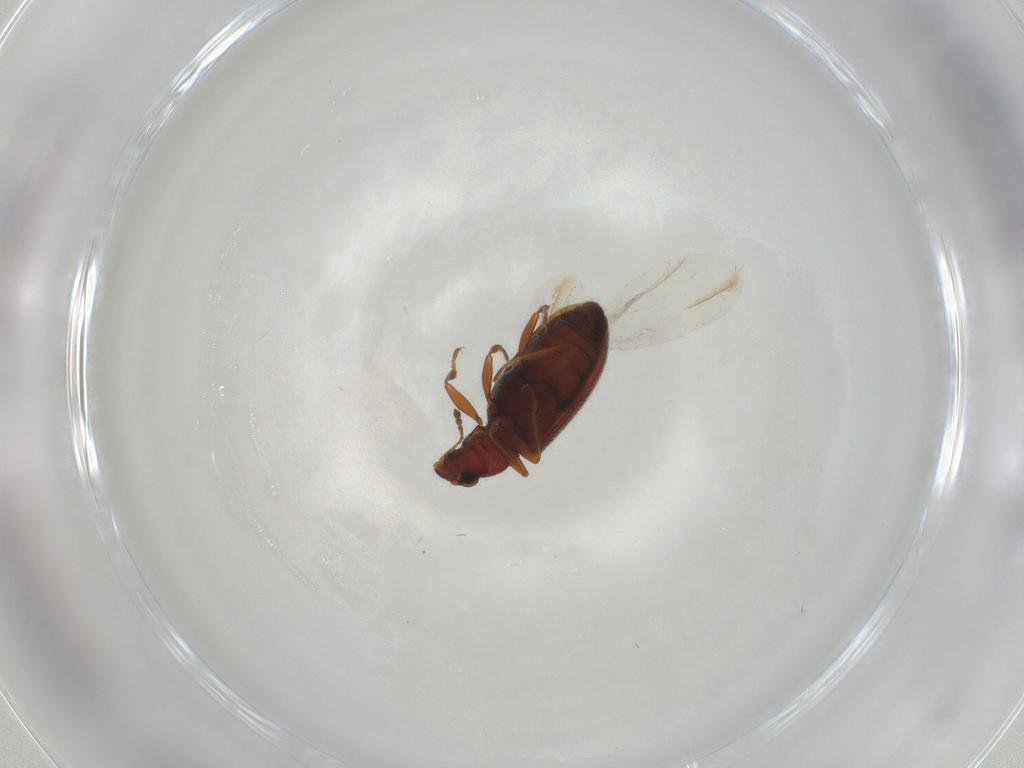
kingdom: Animalia
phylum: Arthropoda
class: Insecta
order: Coleoptera
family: Latridiidae
